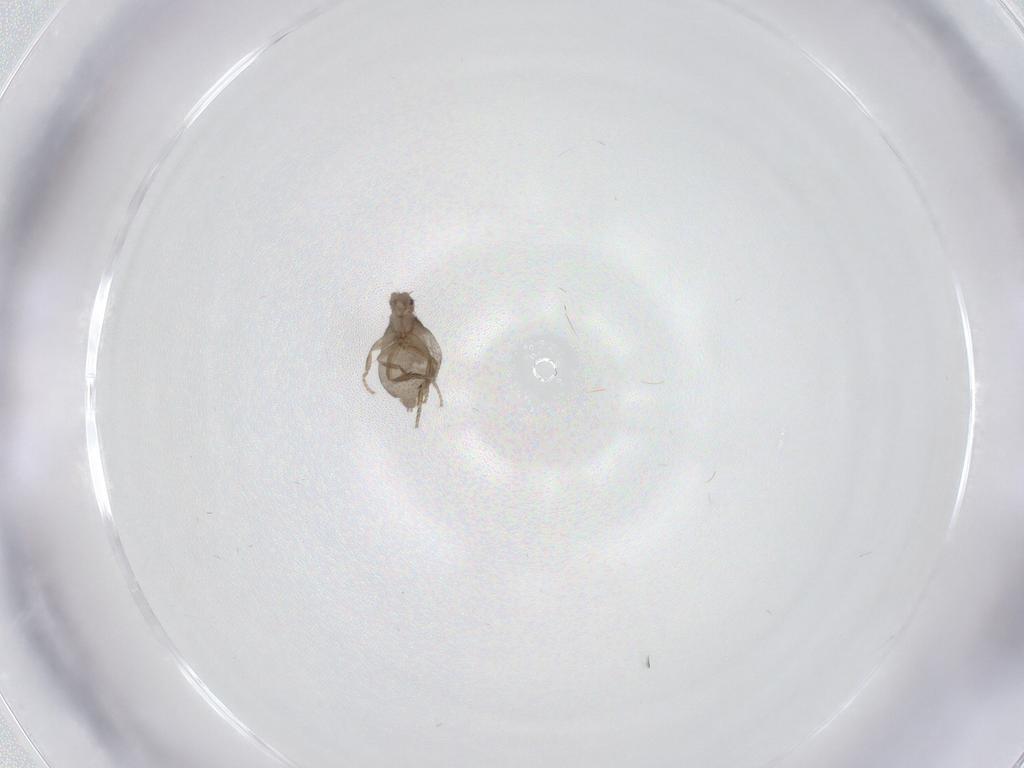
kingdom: Animalia
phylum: Arthropoda
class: Insecta
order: Diptera
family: Phoridae
